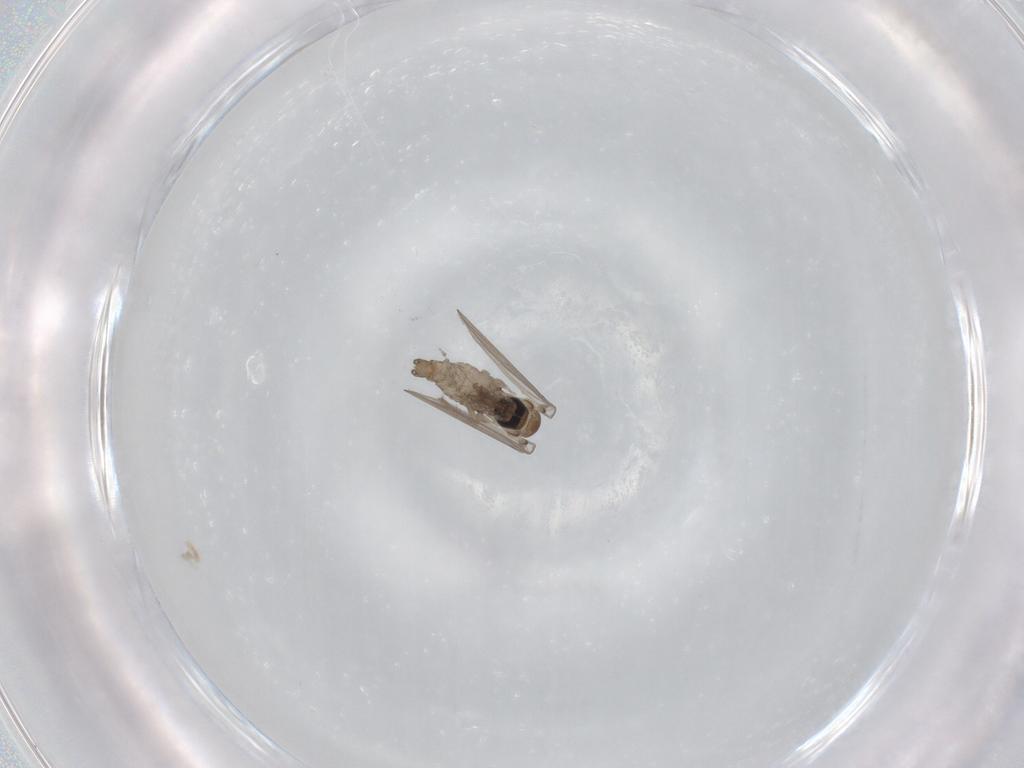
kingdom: Animalia
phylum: Arthropoda
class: Insecta
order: Diptera
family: Psychodidae
